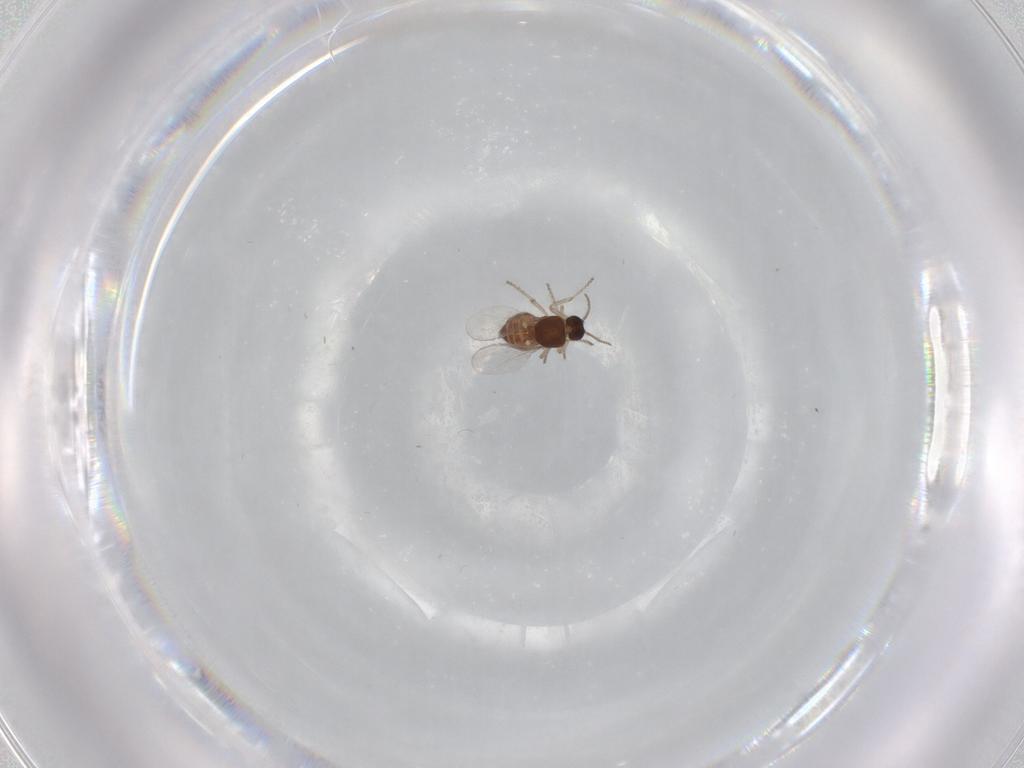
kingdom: Animalia
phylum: Arthropoda
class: Insecta
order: Diptera
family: Ceratopogonidae
